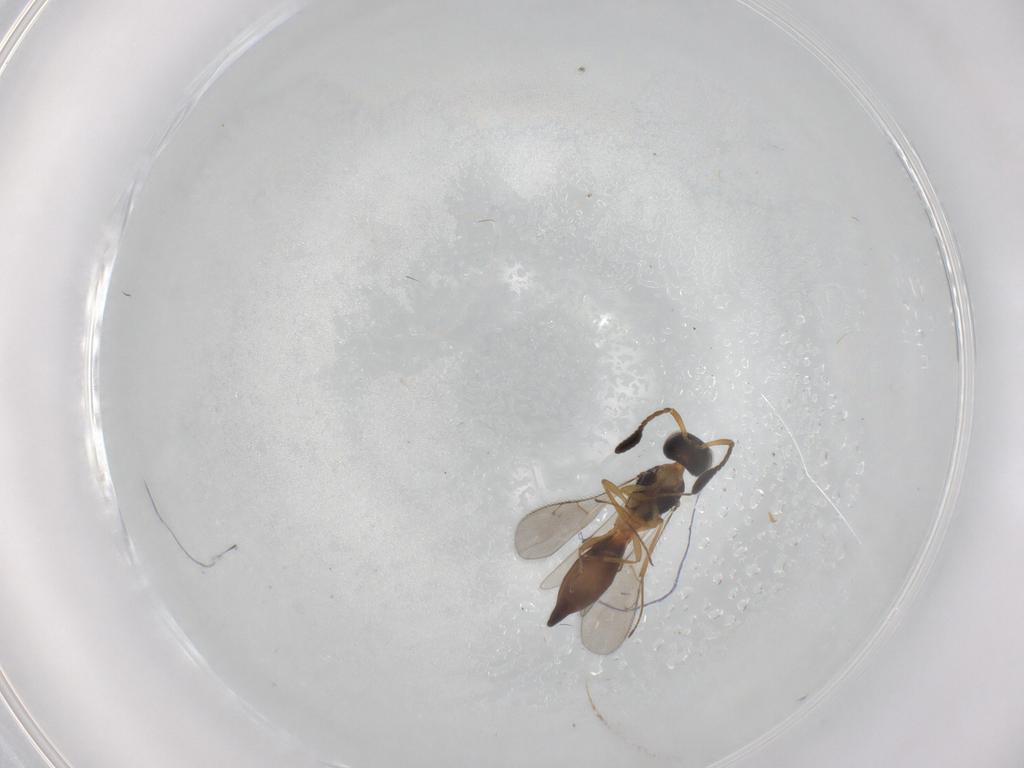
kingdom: Animalia
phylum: Arthropoda
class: Insecta
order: Hymenoptera
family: Scelionidae
